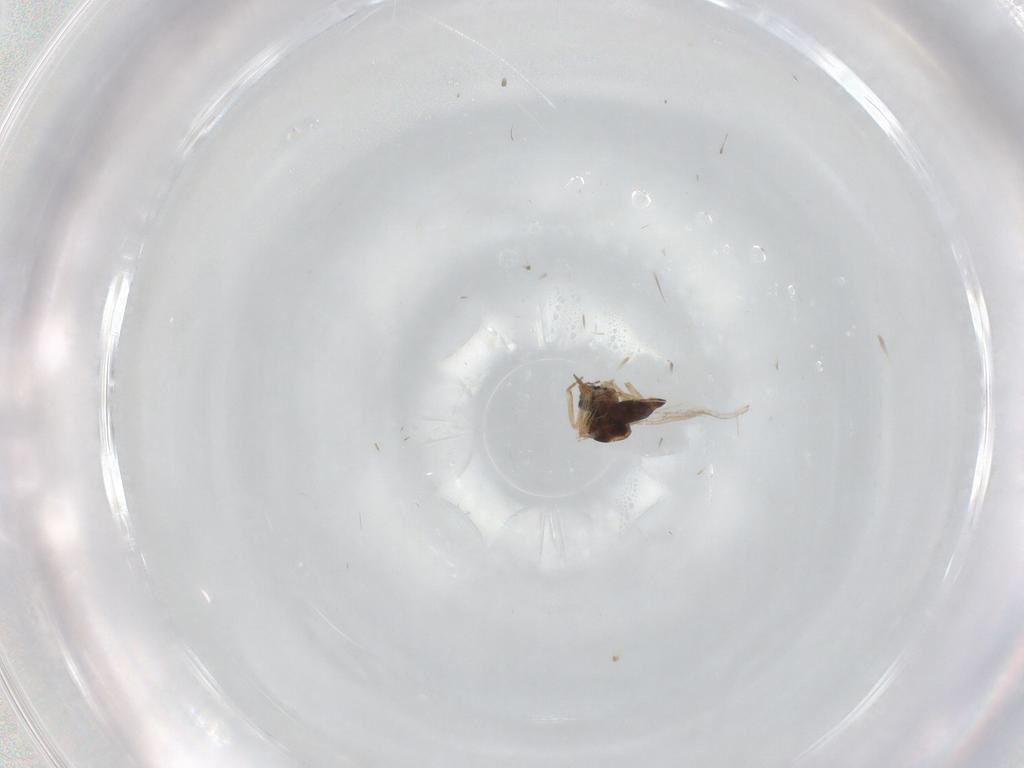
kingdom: Animalia
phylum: Arthropoda
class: Insecta
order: Diptera
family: Ceratopogonidae
